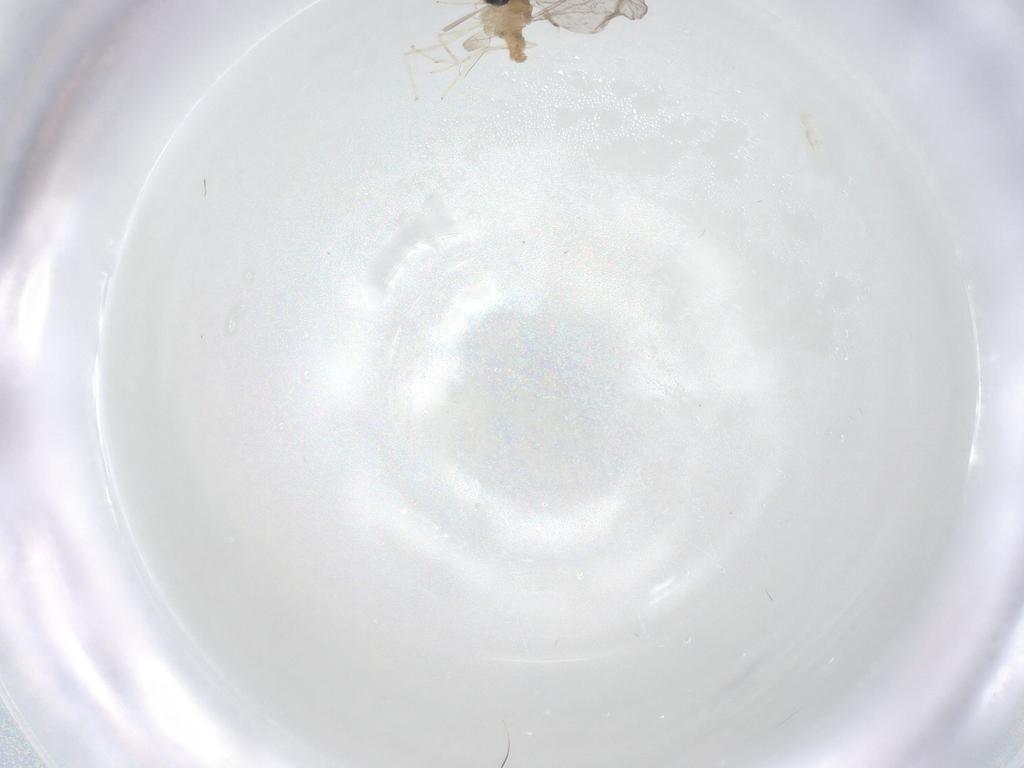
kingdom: Animalia
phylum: Arthropoda
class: Insecta
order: Diptera
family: Cecidomyiidae
